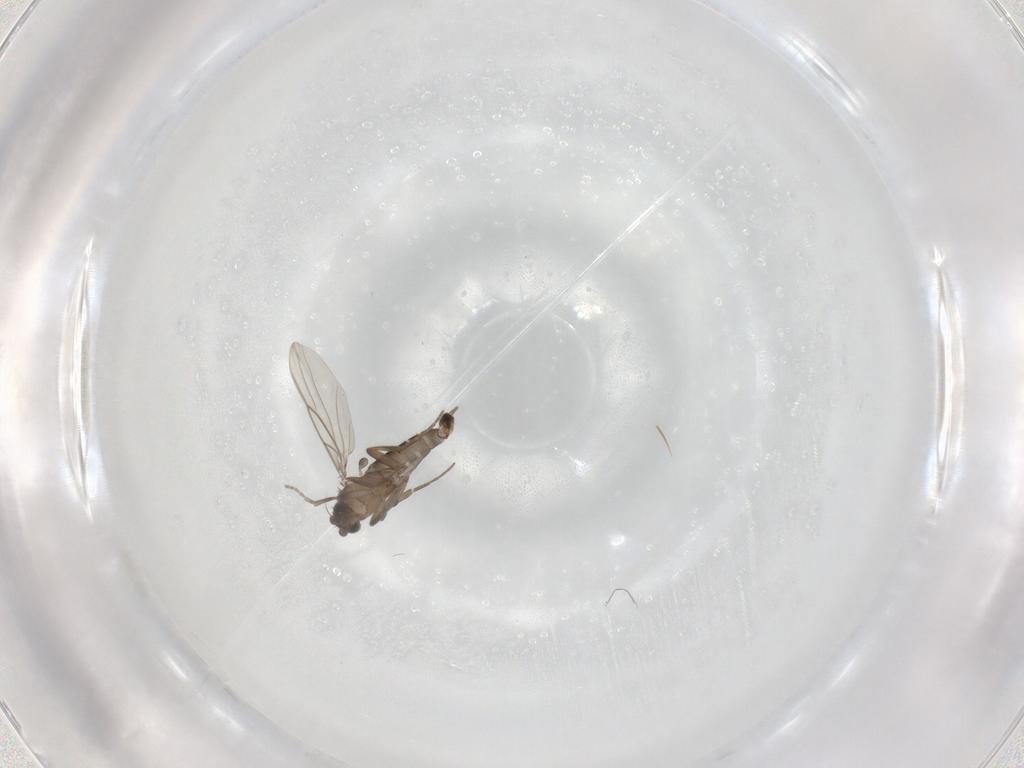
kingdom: Animalia
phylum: Arthropoda
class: Insecta
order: Diptera
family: Phoridae
